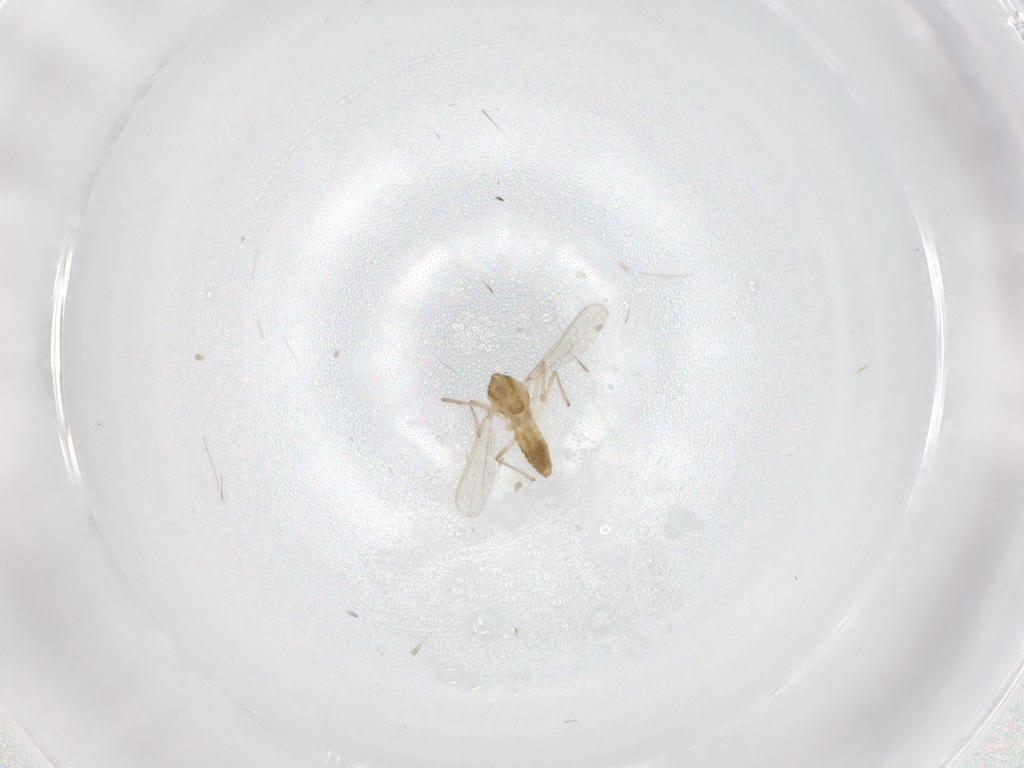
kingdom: Animalia
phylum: Arthropoda
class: Insecta
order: Diptera
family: Chironomidae
